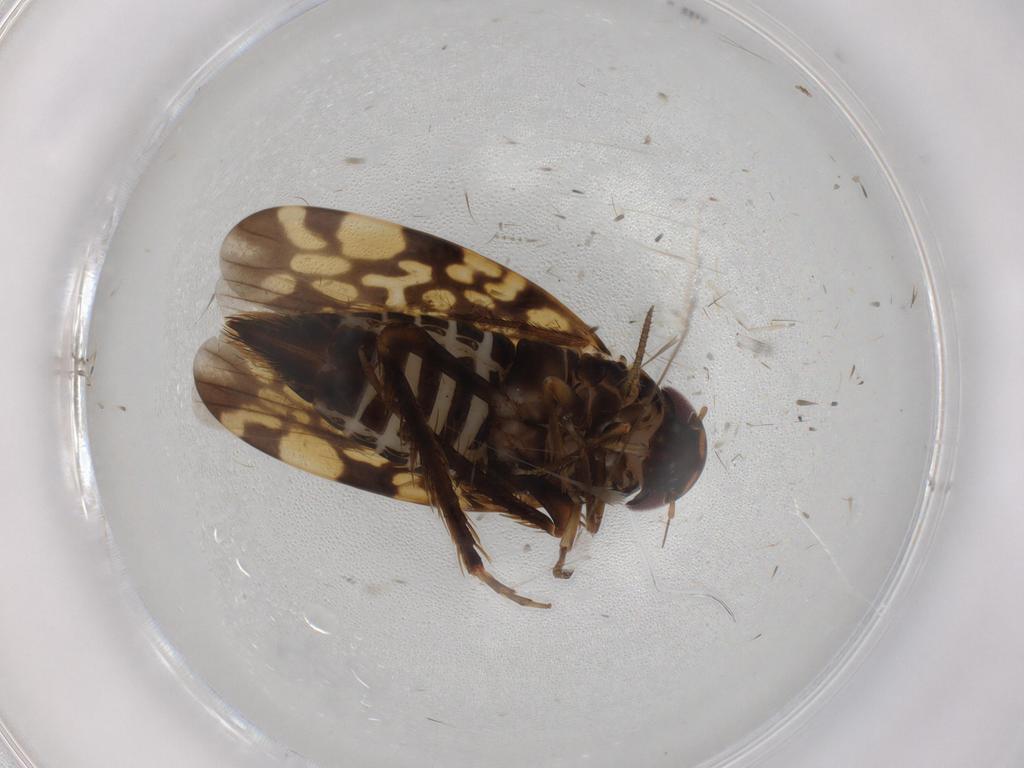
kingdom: Animalia
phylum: Arthropoda
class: Insecta
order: Hemiptera
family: Cicadellidae
